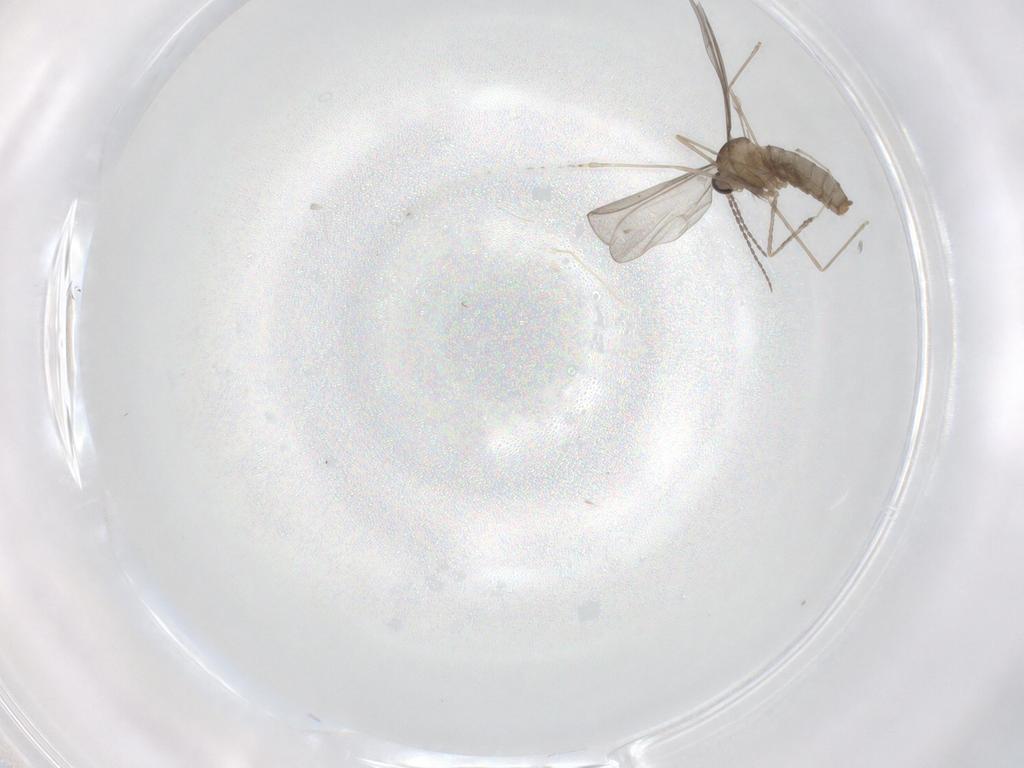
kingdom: Animalia
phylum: Arthropoda
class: Insecta
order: Diptera
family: Cecidomyiidae
